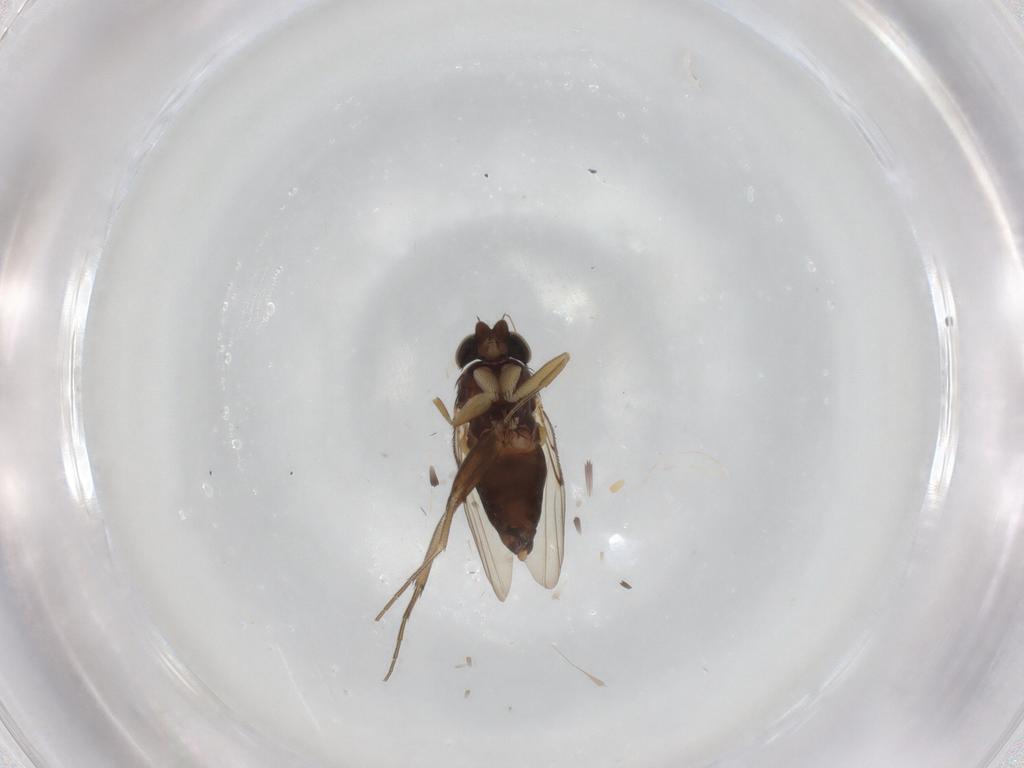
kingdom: Animalia
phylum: Arthropoda
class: Insecta
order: Diptera
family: Phoridae
